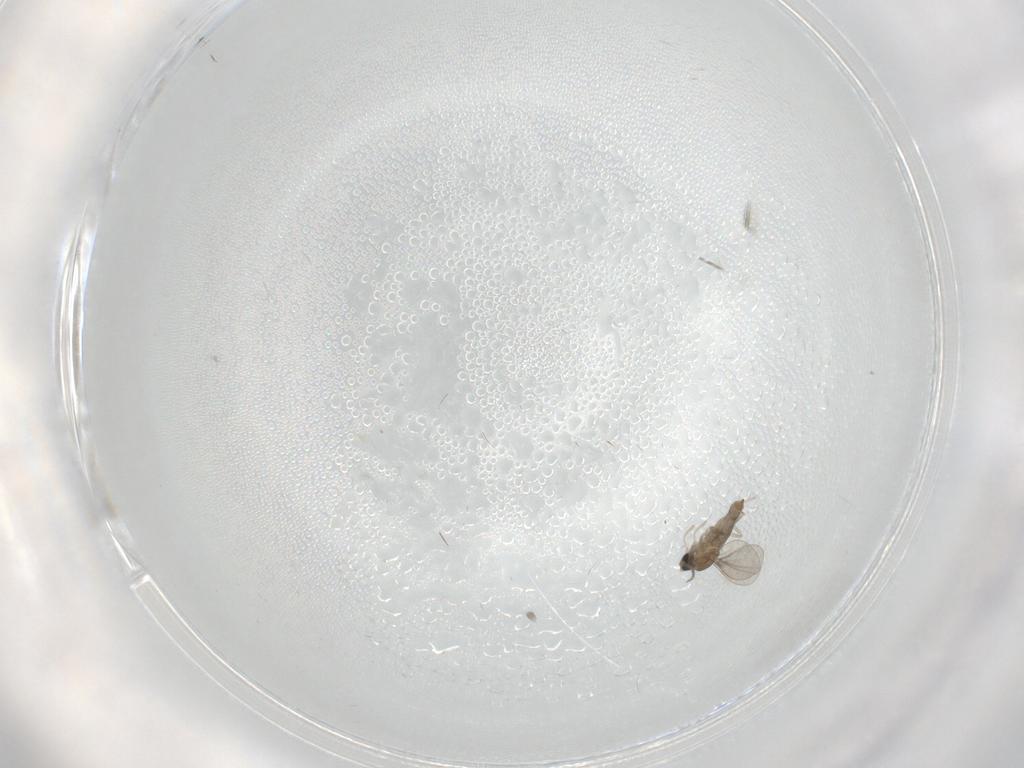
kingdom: Animalia
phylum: Arthropoda
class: Insecta
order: Diptera
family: Cecidomyiidae
